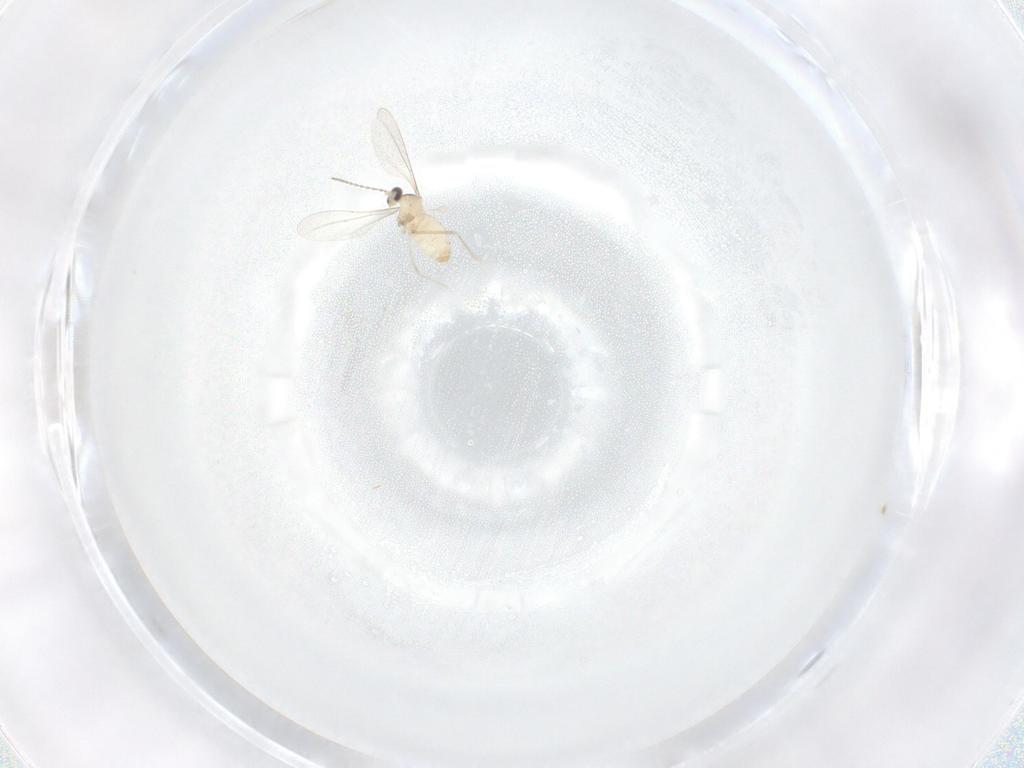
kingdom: Animalia
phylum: Arthropoda
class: Insecta
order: Diptera
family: Cecidomyiidae
